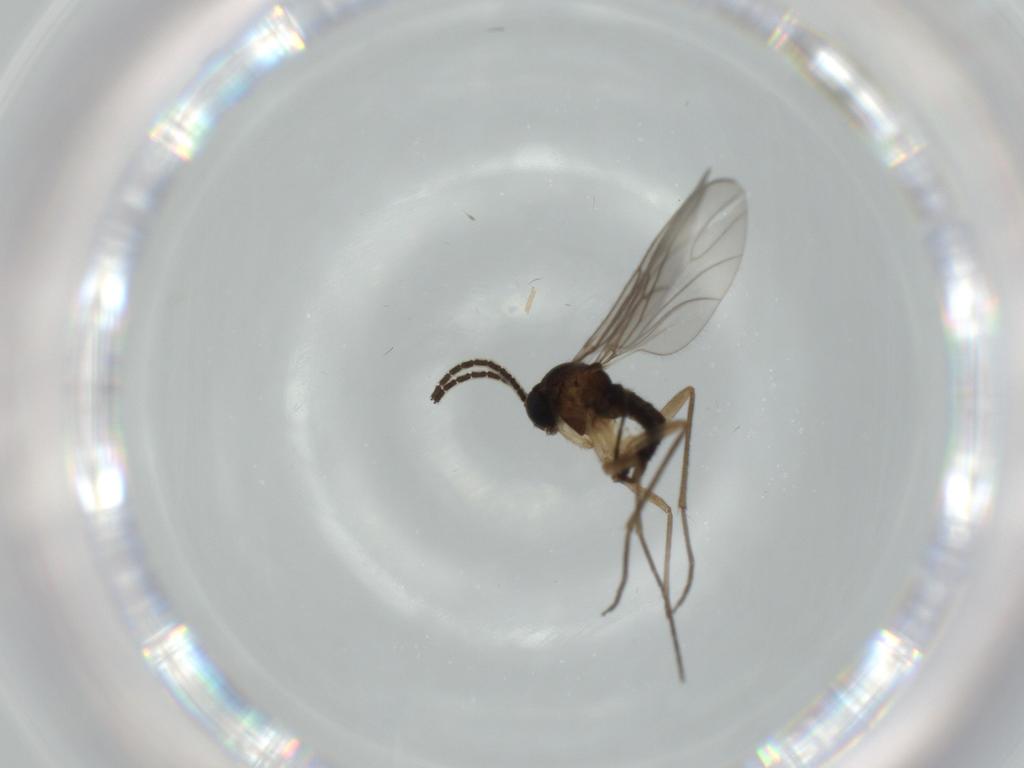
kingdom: Animalia
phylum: Arthropoda
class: Insecta
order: Diptera
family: Sciaridae
